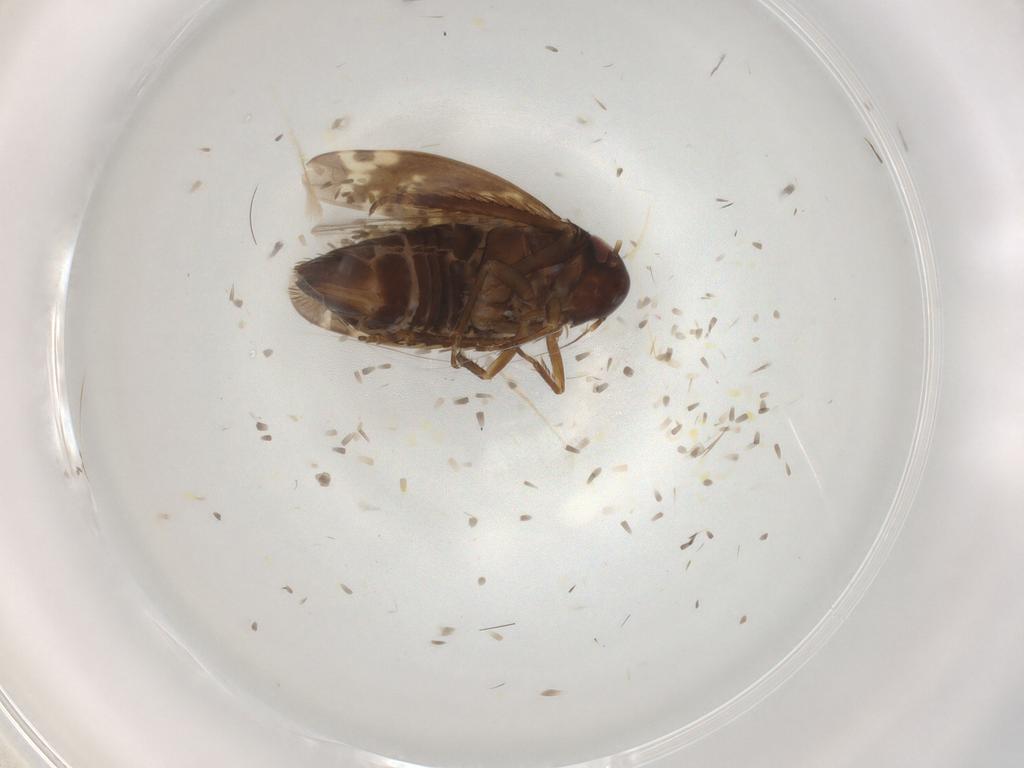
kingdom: Animalia
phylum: Arthropoda
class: Insecta
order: Hemiptera
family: Cicadellidae
